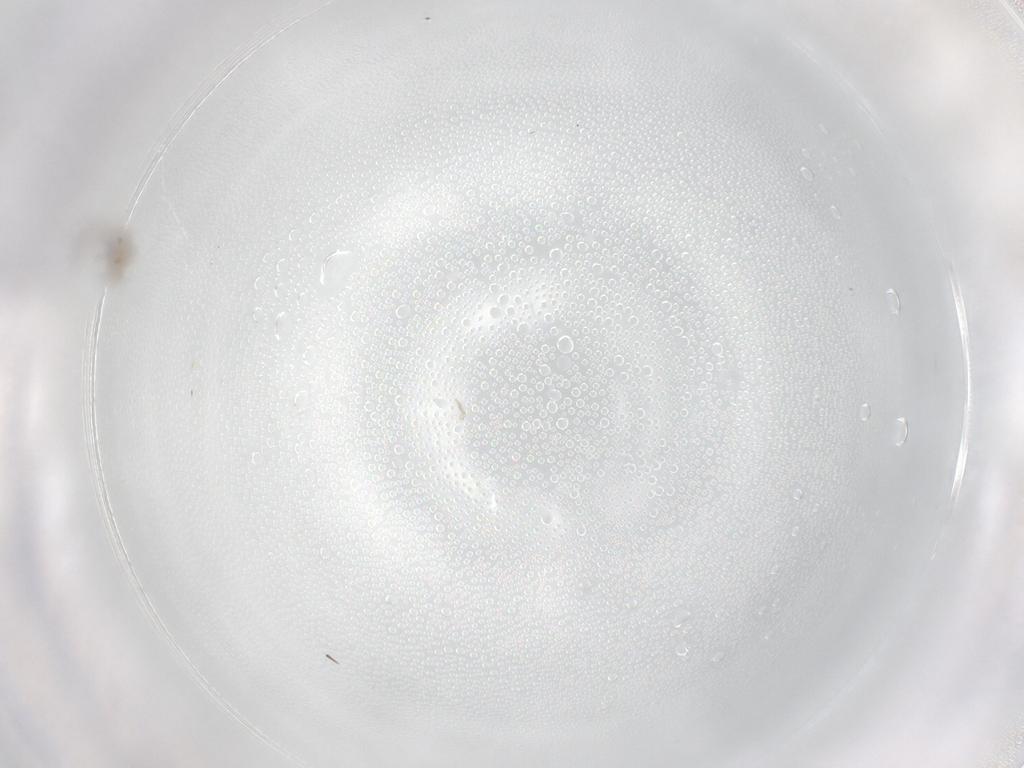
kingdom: Animalia
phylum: Arthropoda
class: Insecta
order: Diptera
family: Cecidomyiidae
